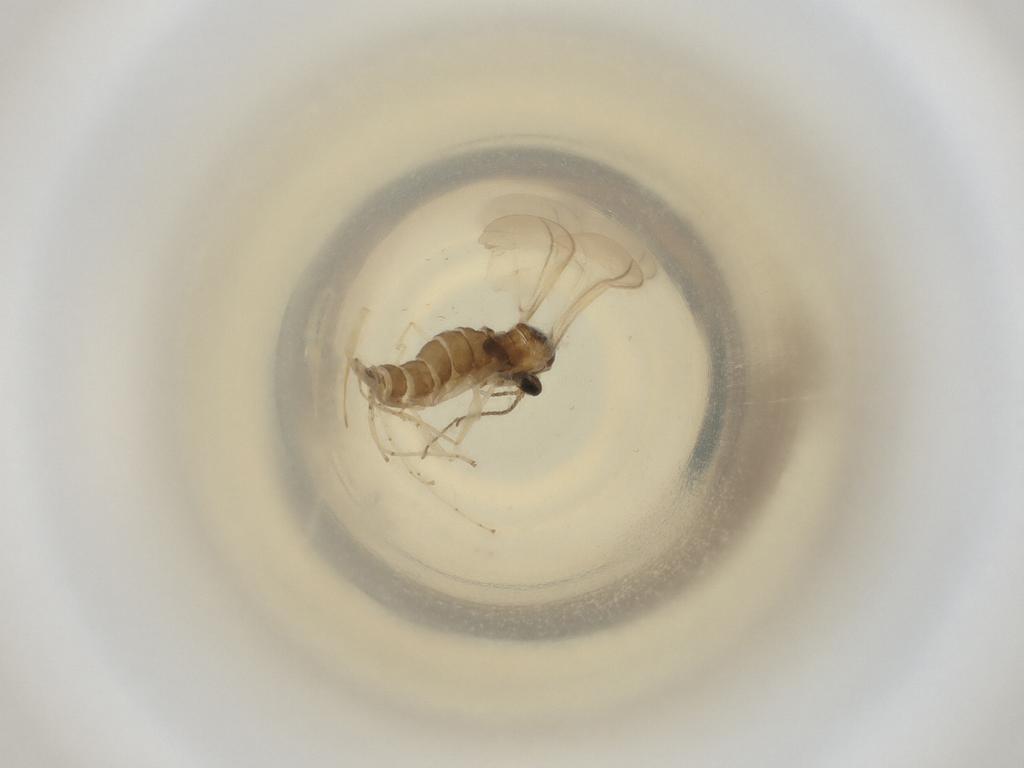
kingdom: Animalia
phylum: Arthropoda
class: Insecta
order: Diptera
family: Cecidomyiidae
